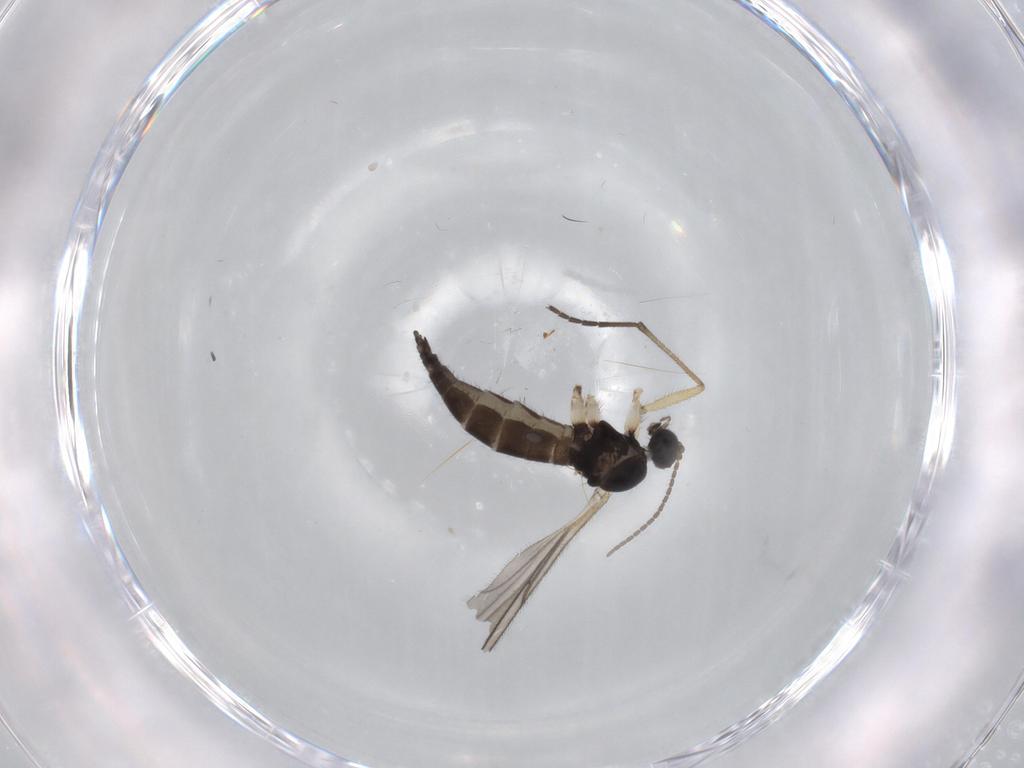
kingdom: Animalia
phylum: Arthropoda
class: Insecta
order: Diptera
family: Sciaridae
